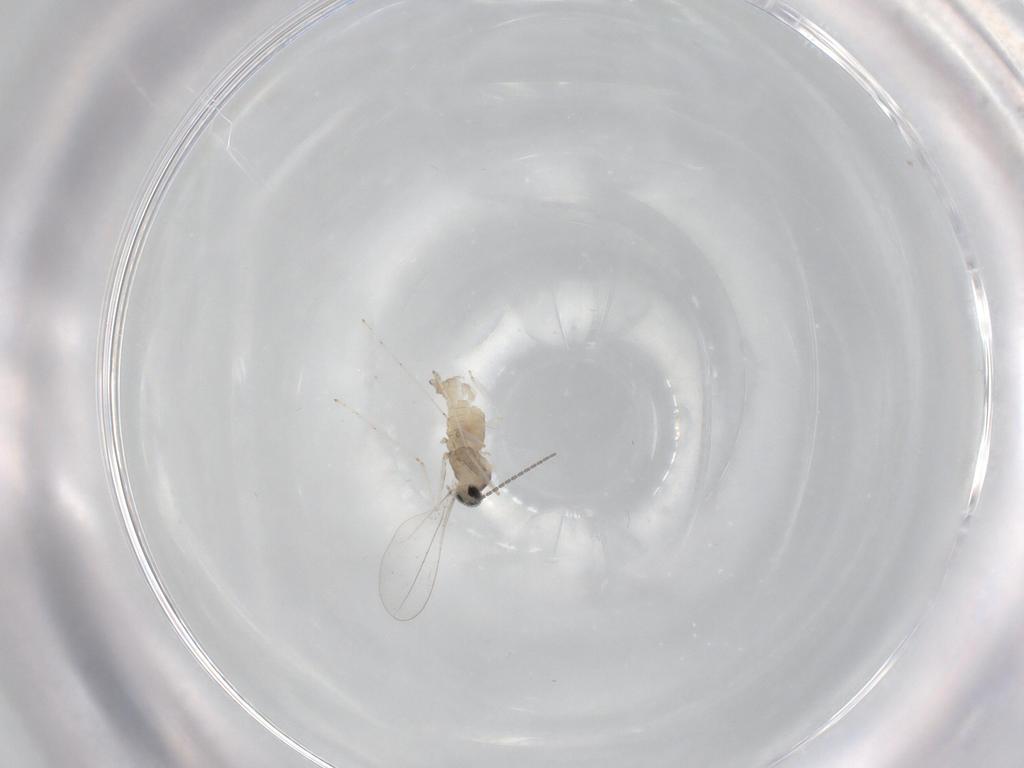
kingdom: Animalia
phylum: Arthropoda
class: Insecta
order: Diptera
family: Cecidomyiidae
